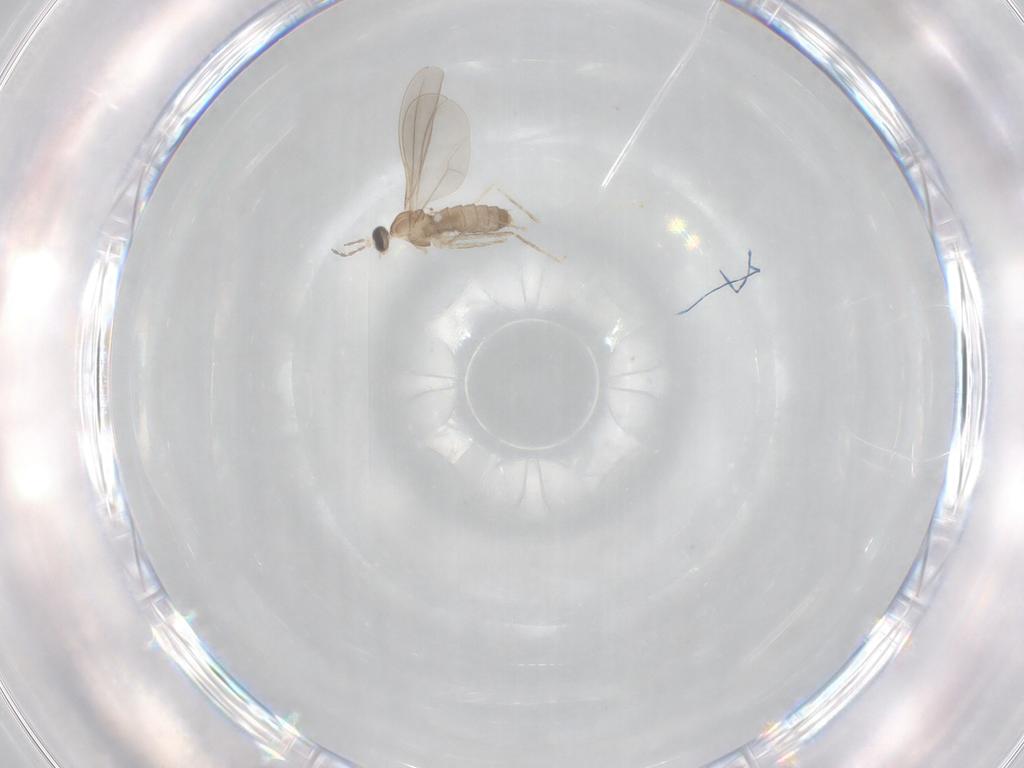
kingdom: Animalia
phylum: Arthropoda
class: Insecta
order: Diptera
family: Cecidomyiidae
